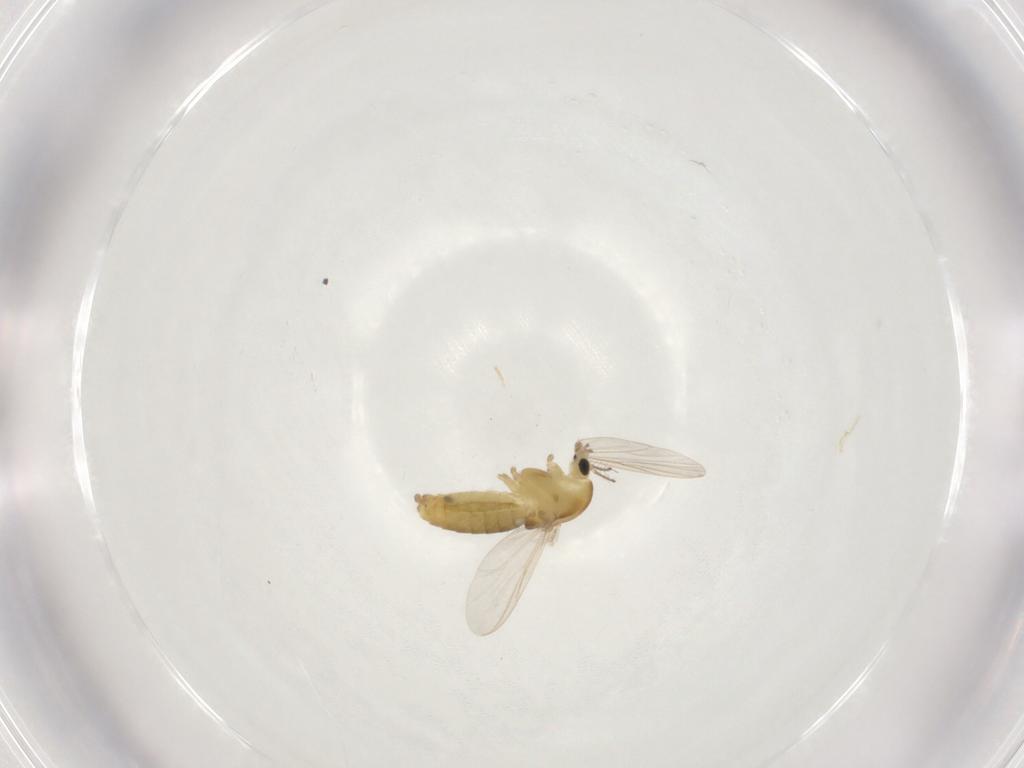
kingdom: Animalia
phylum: Arthropoda
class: Insecta
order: Diptera
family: Chironomidae
